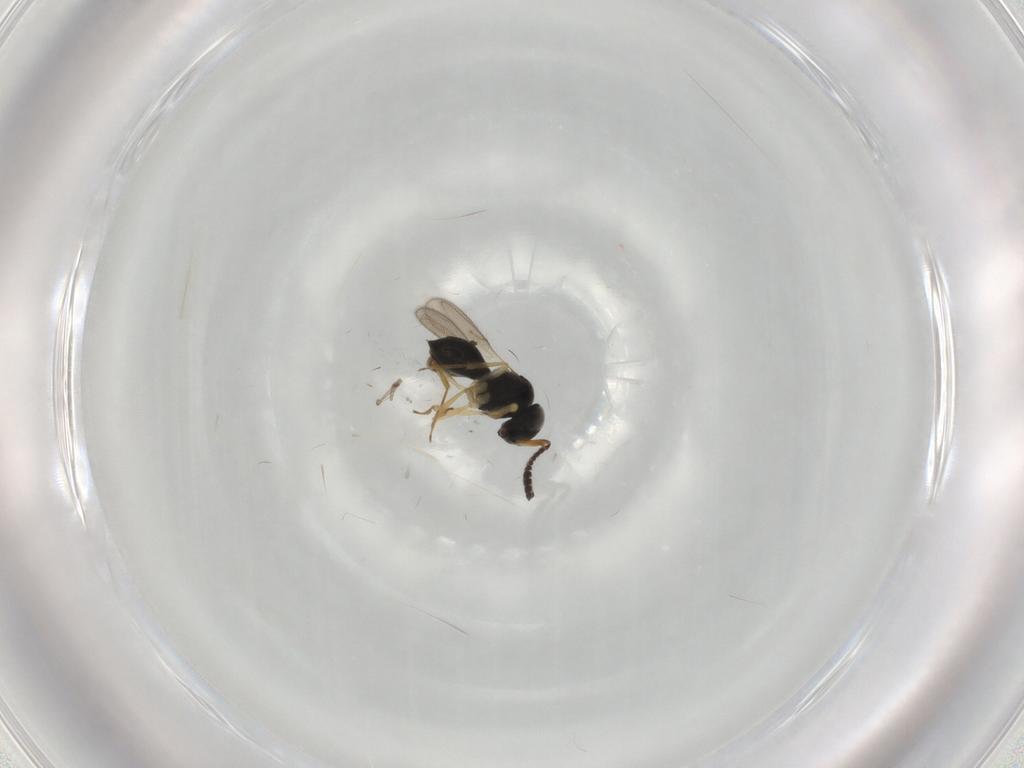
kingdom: Animalia
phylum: Arthropoda
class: Insecta
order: Hymenoptera
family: Scelionidae
